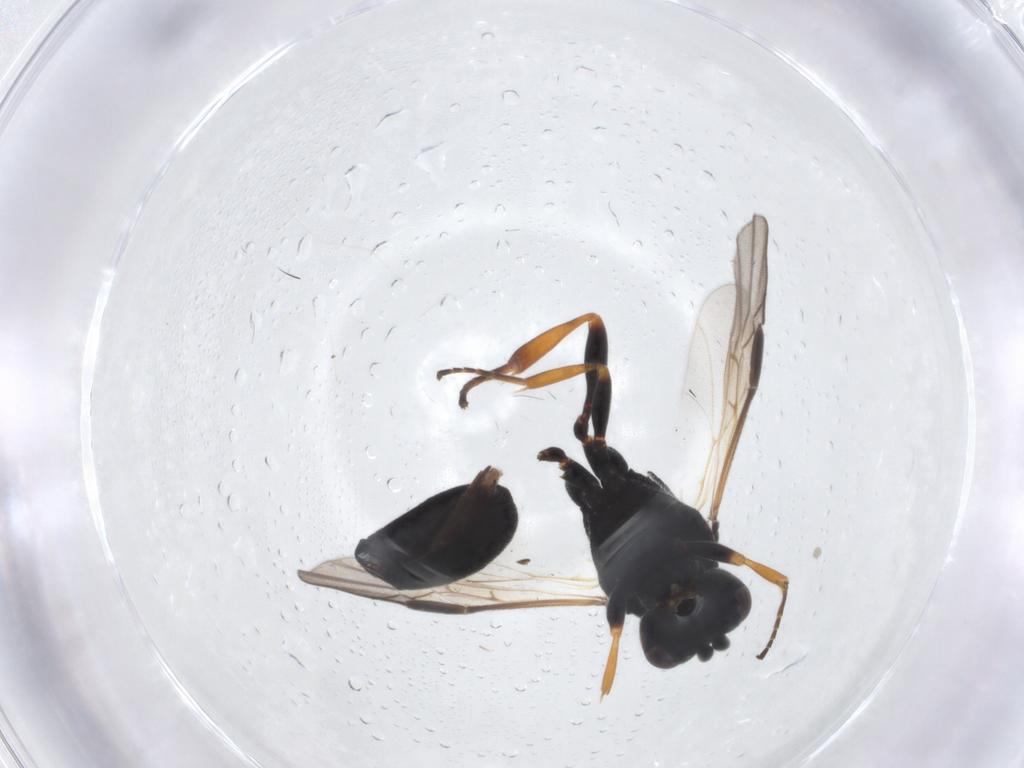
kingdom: Animalia
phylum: Arthropoda
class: Insecta
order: Hymenoptera
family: Braconidae
